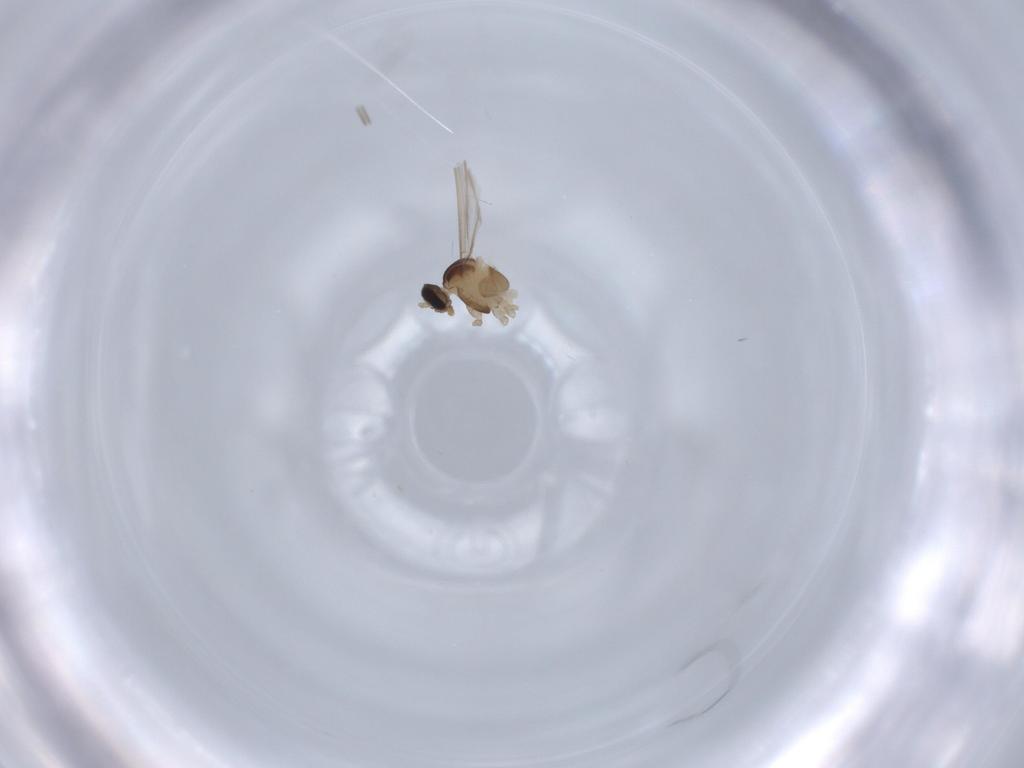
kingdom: Animalia
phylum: Arthropoda
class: Insecta
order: Diptera
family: Cecidomyiidae
